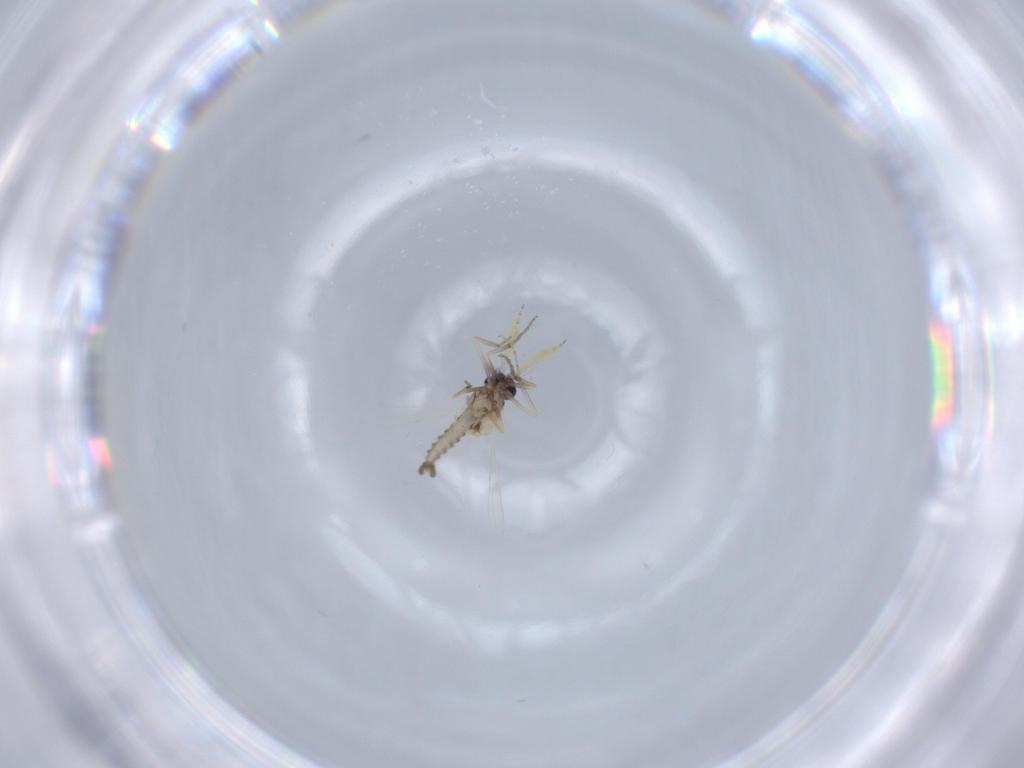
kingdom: Animalia
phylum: Arthropoda
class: Insecta
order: Diptera
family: Ceratopogonidae
